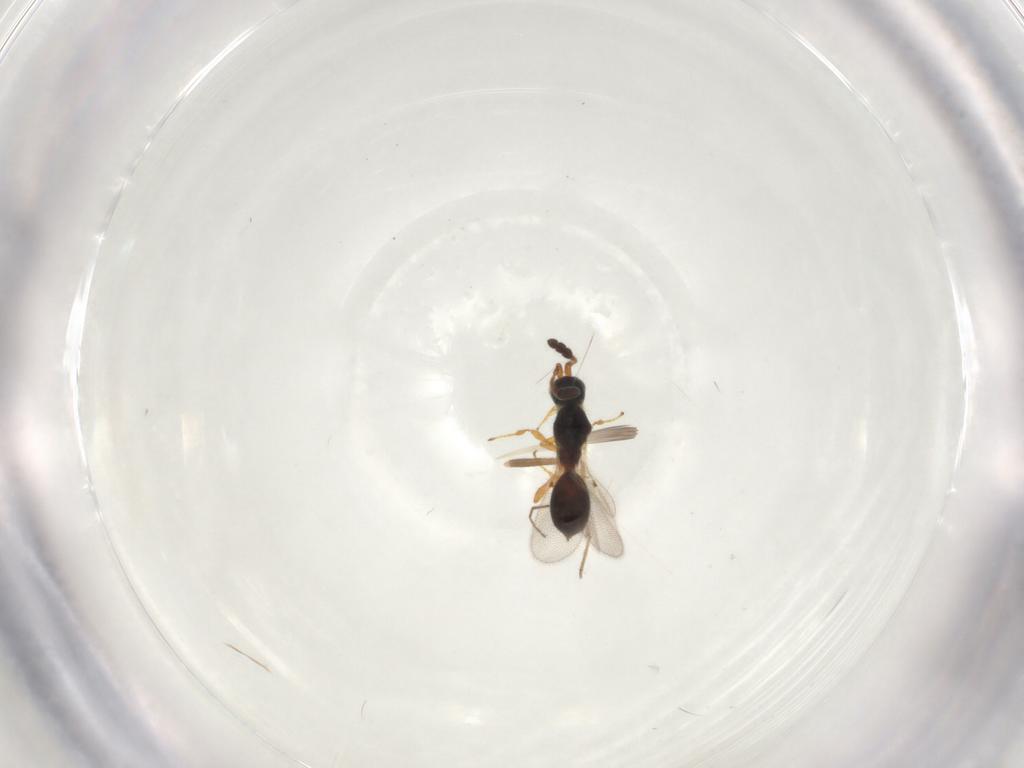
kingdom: Animalia
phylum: Arthropoda
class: Insecta
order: Hymenoptera
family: Diapriidae
